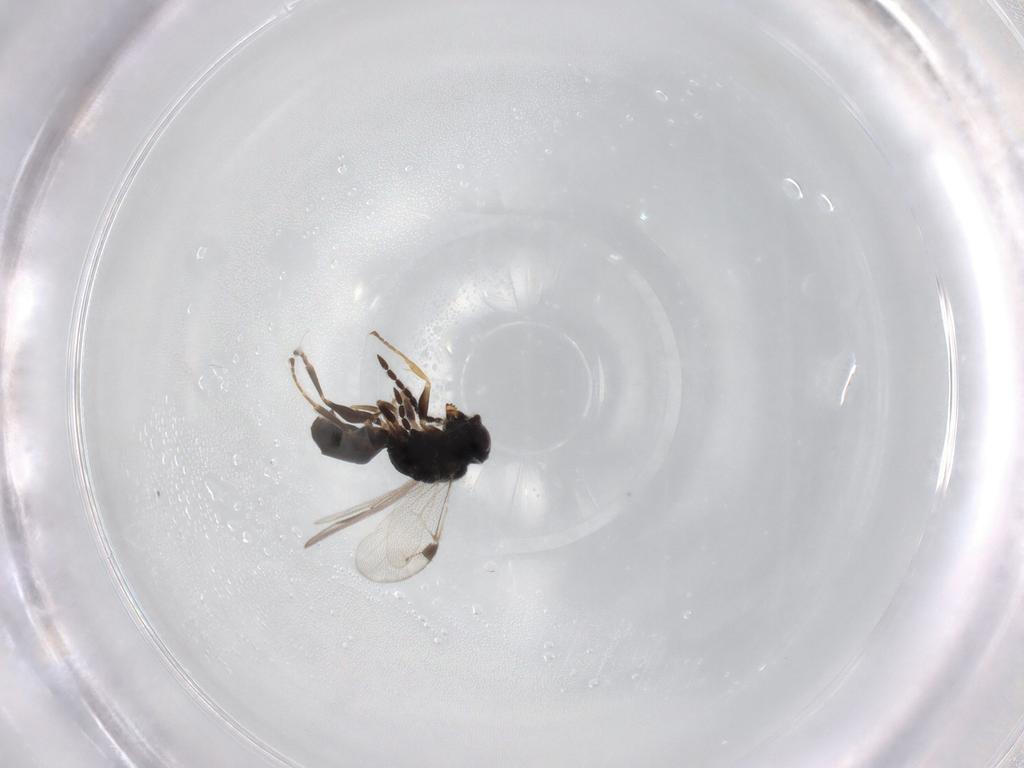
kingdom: Animalia
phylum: Arthropoda
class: Insecta
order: Hymenoptera
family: Dryinidae
